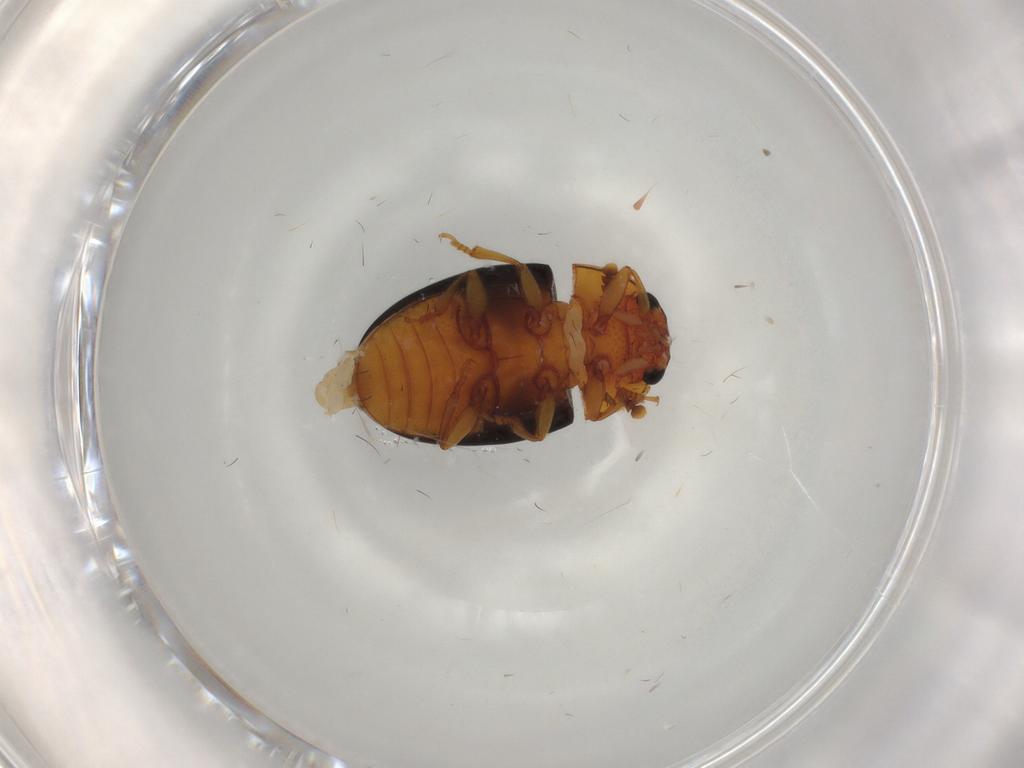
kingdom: Animalia
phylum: Arthropoda
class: Insecta
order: Coleoptera
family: Erotylidae
